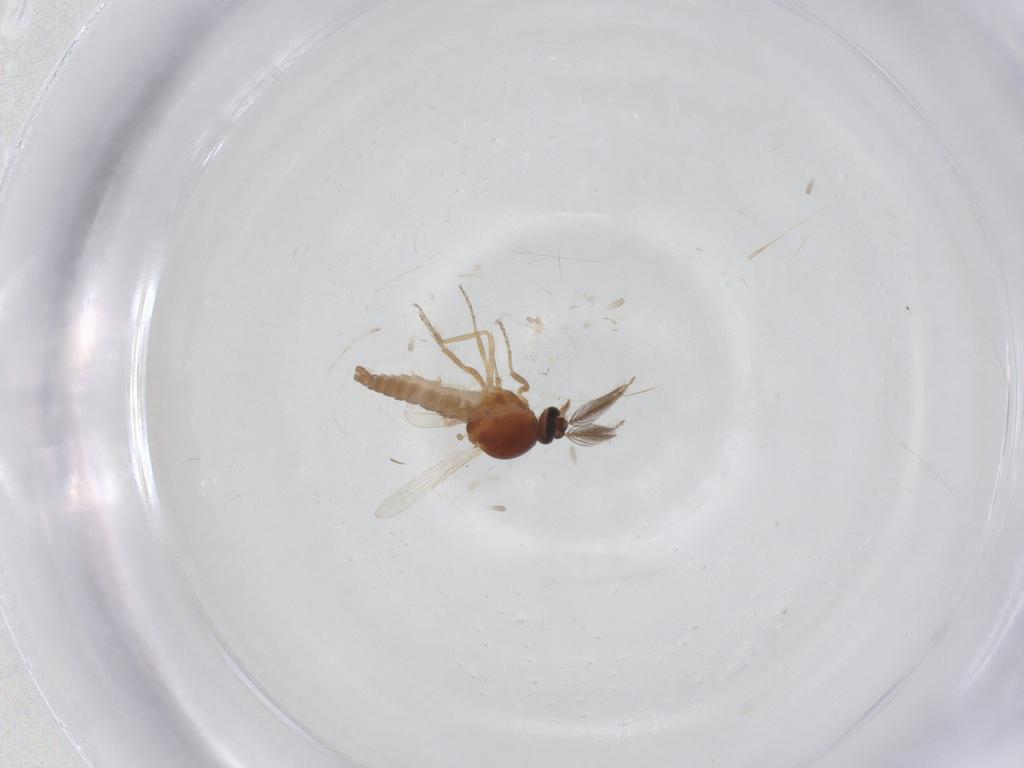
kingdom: Animalia
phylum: Arthropoda
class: Insecta
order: Diptera
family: Ceratopogonidae
